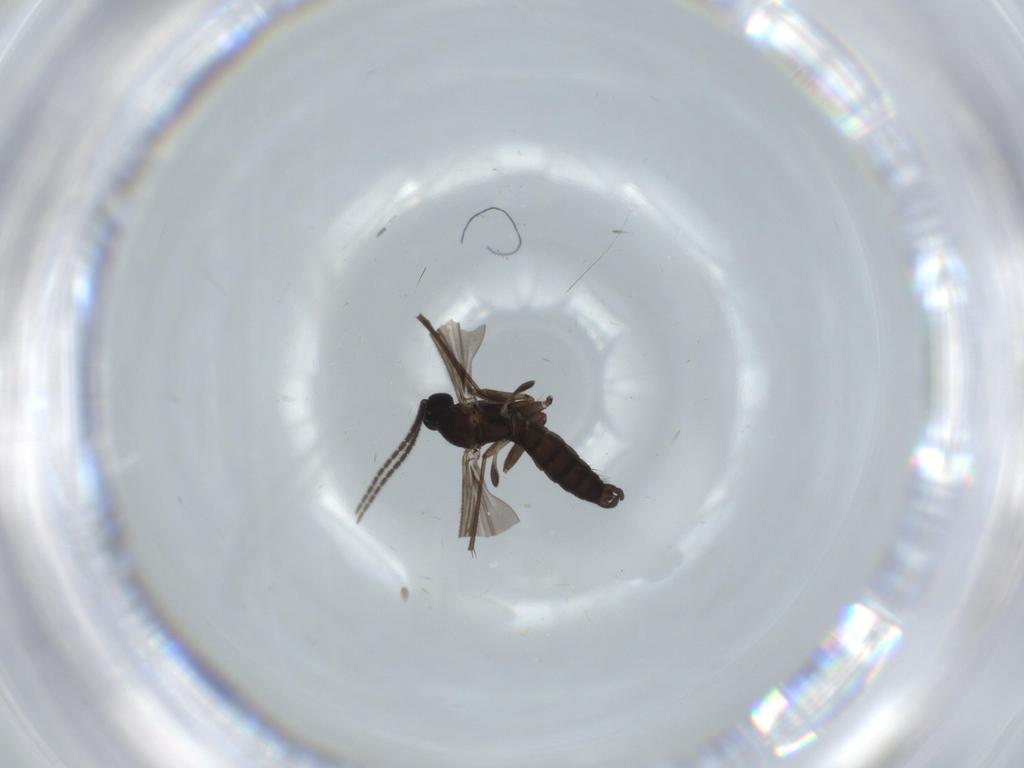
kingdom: Animalia
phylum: Arthropoda
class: Insecta
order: Diptera
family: Sciaridae
